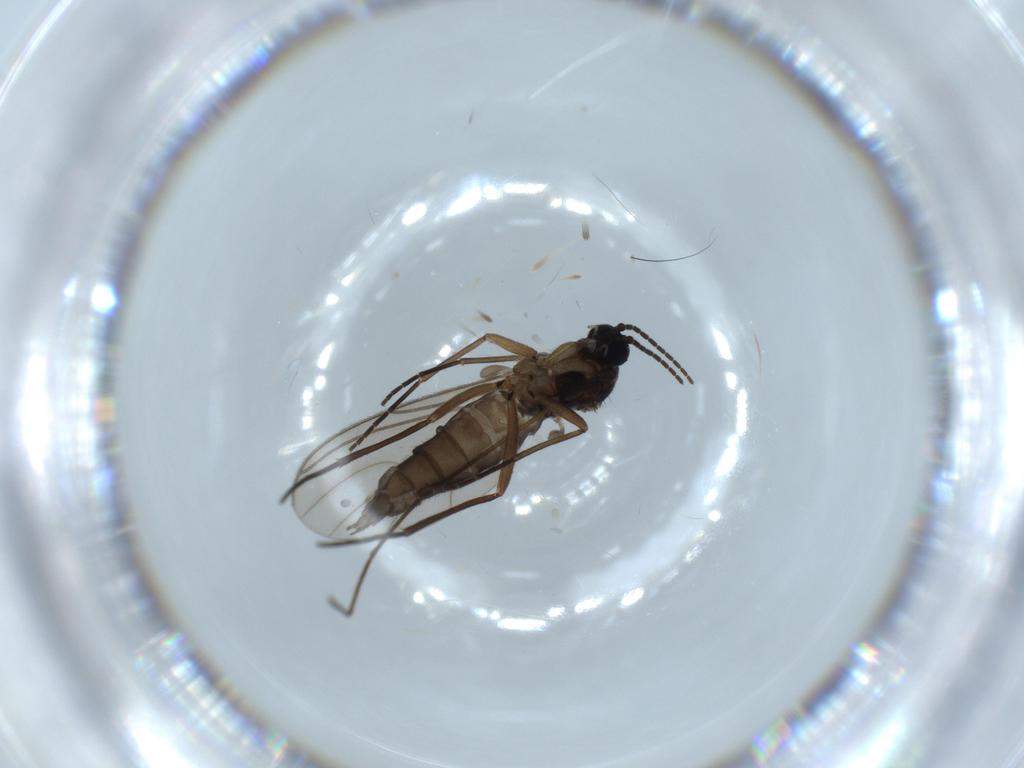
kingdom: Animalia
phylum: Arthropoda
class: Insecta
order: Diptera
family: Sciaridae
